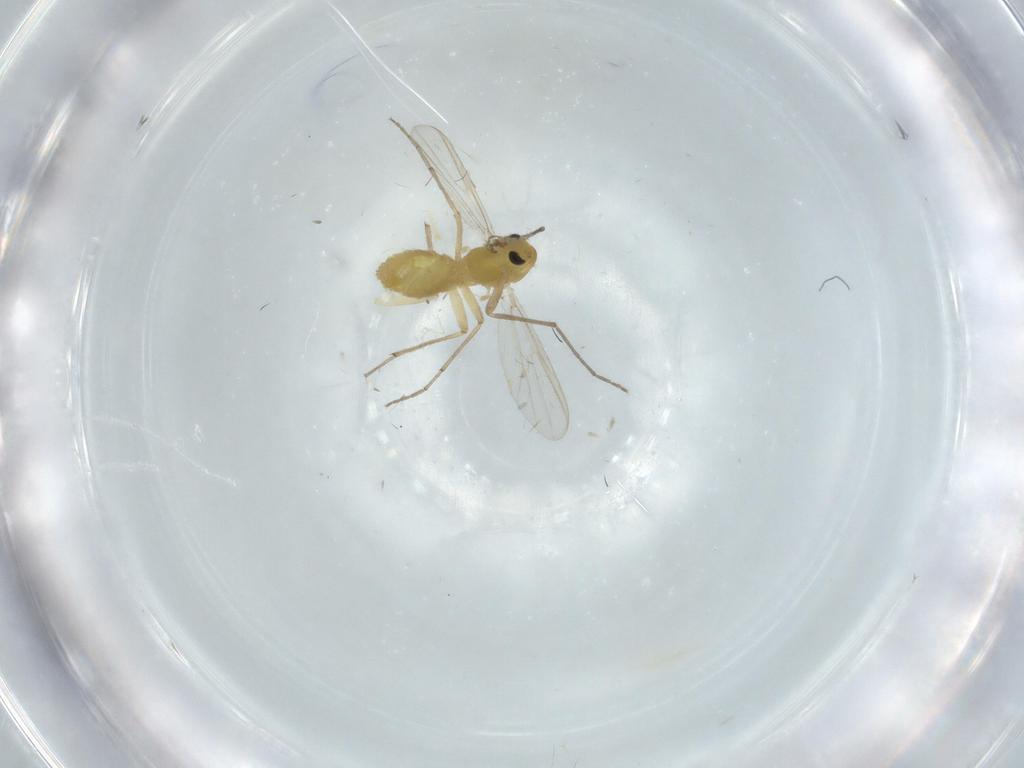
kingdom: Animalia
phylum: Arthropoda
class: Insecta
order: Diptera
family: Chironomidae
